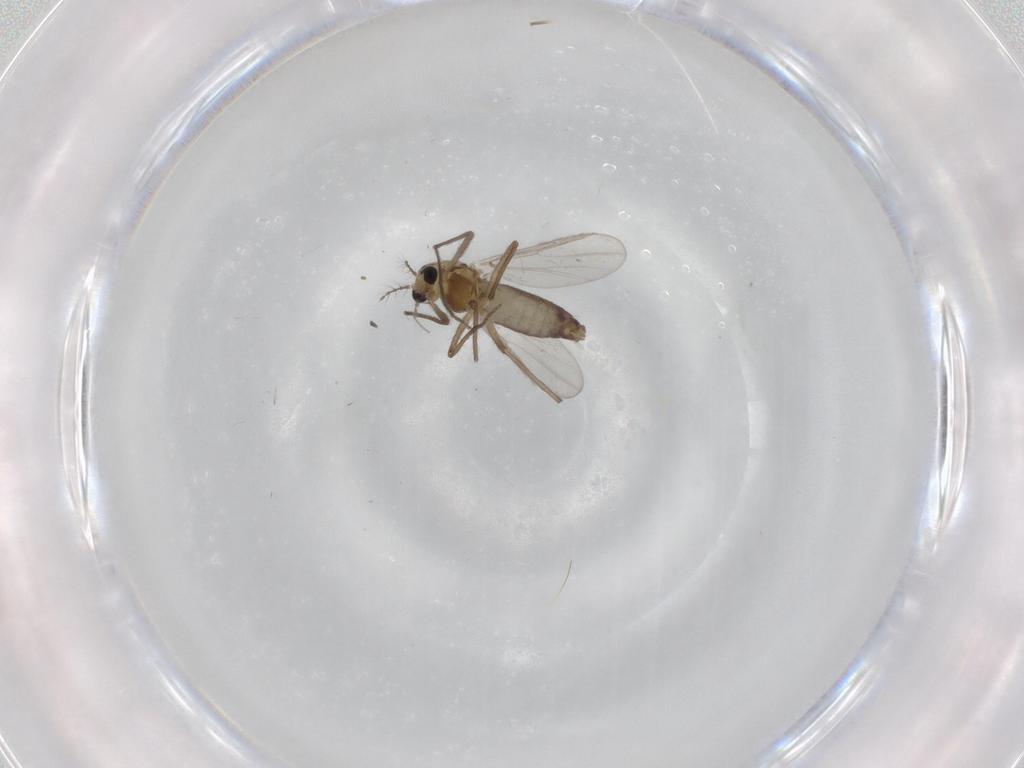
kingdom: Animalia
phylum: Arthropoda
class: Insecta
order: Diptera
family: Chironomidae
